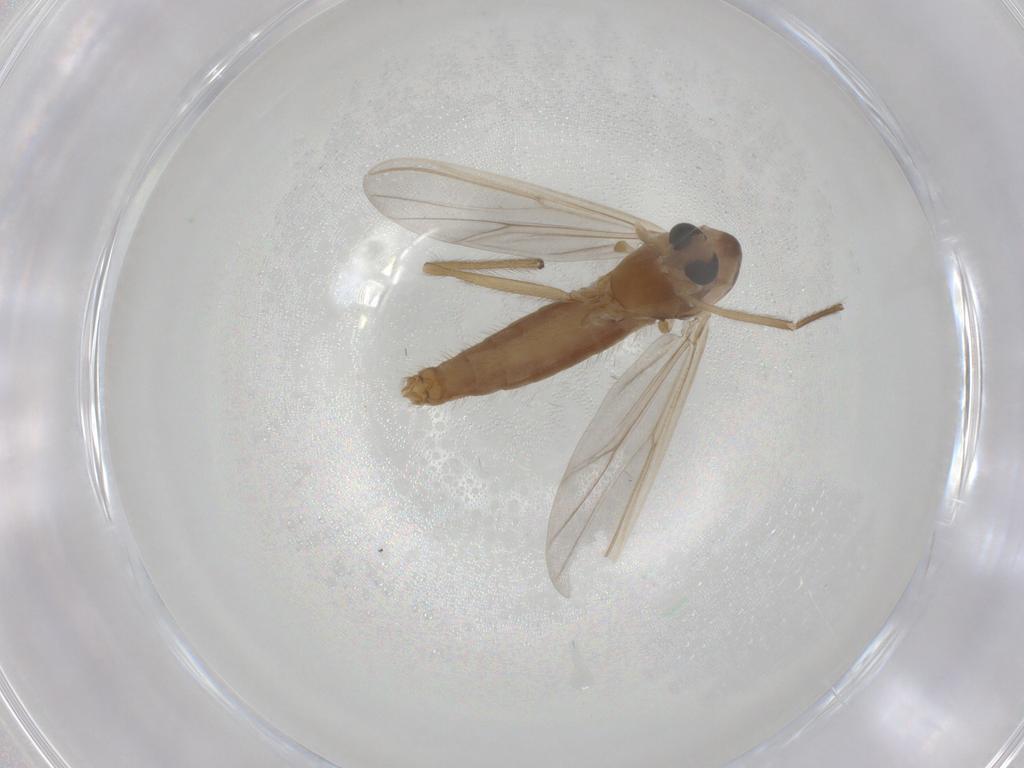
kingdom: Animalia
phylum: Arthropoda
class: Insecta
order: Diptera
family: Chironomidae
